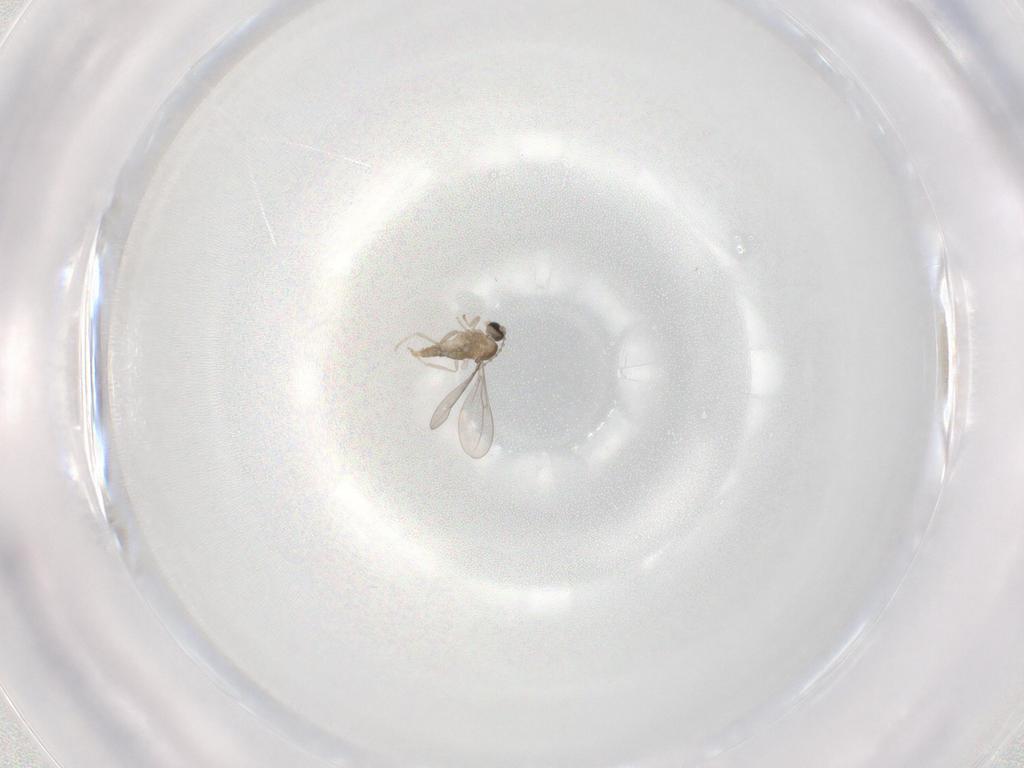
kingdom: Animalia
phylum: Arthropoda
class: Insecta
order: Diptera
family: Cecidomyiidae
